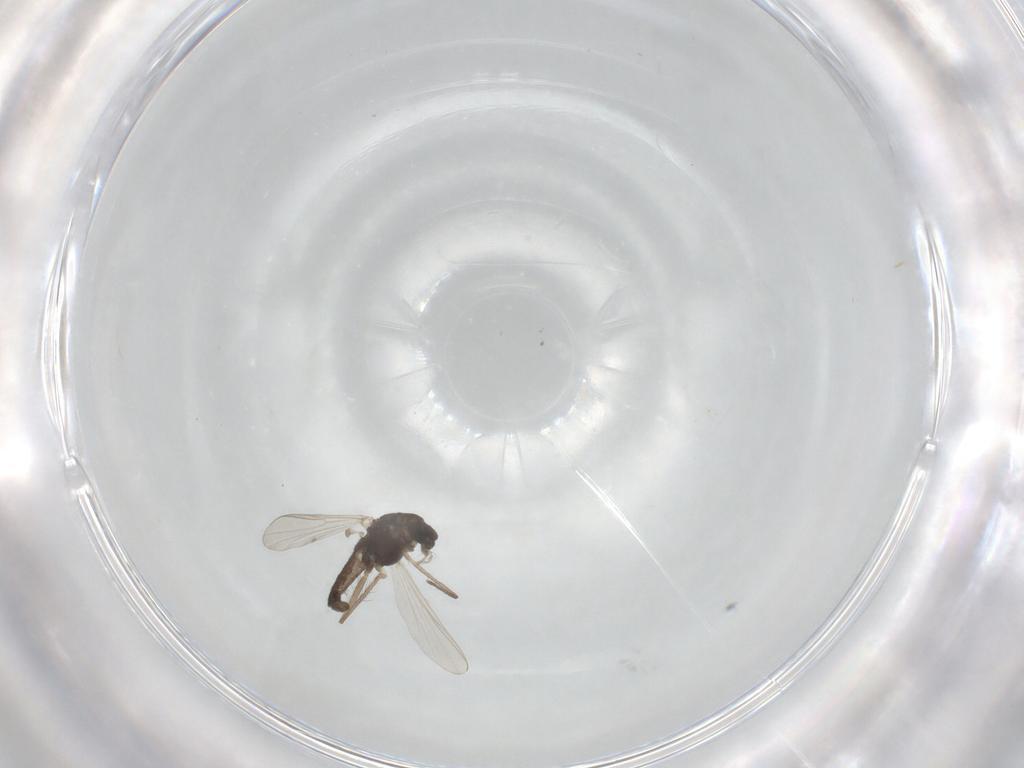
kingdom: Animalia
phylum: Arthropoda
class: Insecta
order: Diptera
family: Chironomidae
